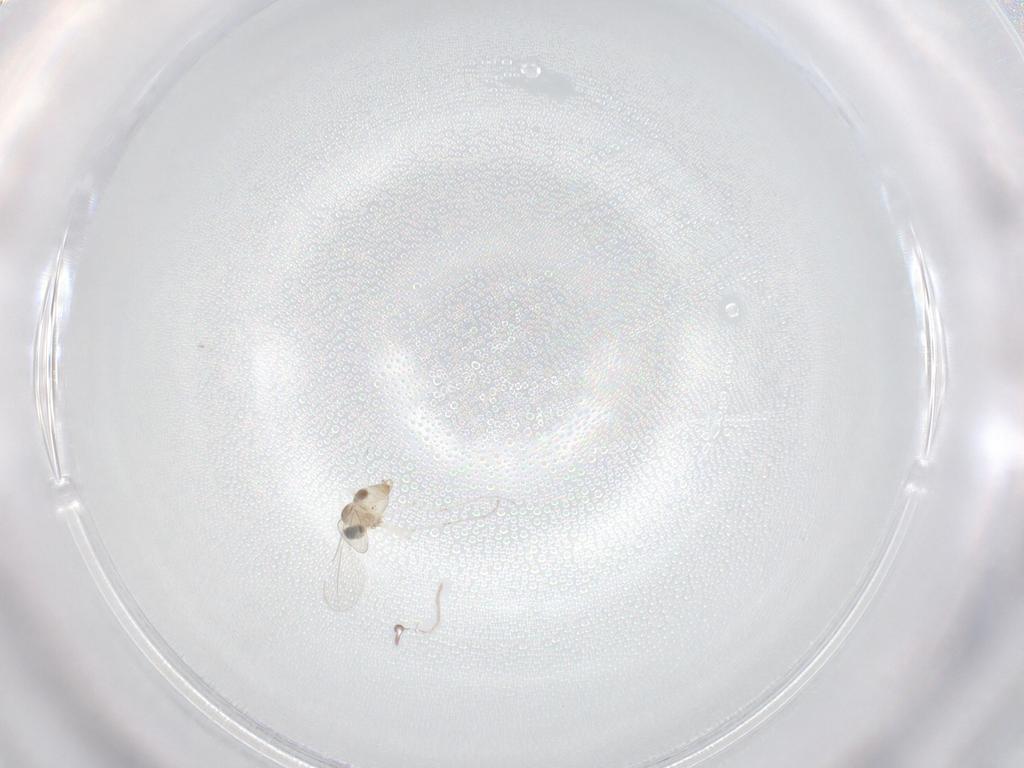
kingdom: Animalia
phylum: Arthropoda
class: Insecta
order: Diptera
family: Cecidomyiidae
